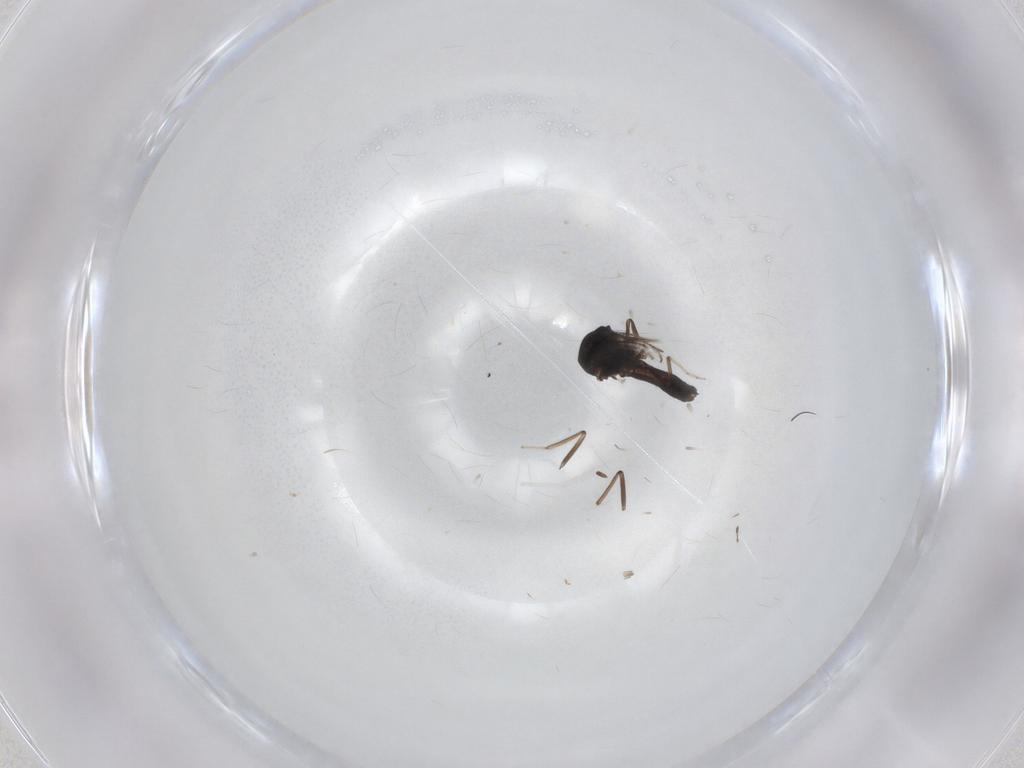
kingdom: Animalia
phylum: Arthropoda
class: Insecta
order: Diptera
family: Ceratopogonidae
